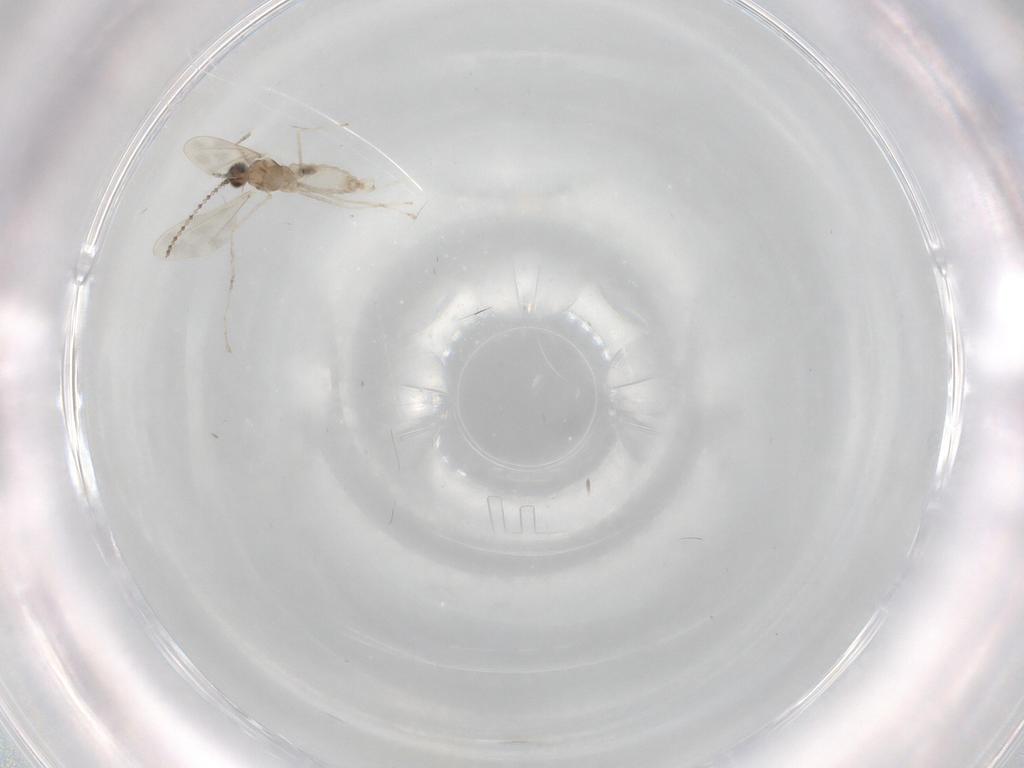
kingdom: Animalia
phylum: Arthropoda
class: Insecta
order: Diptera
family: Cecidomyiidae
